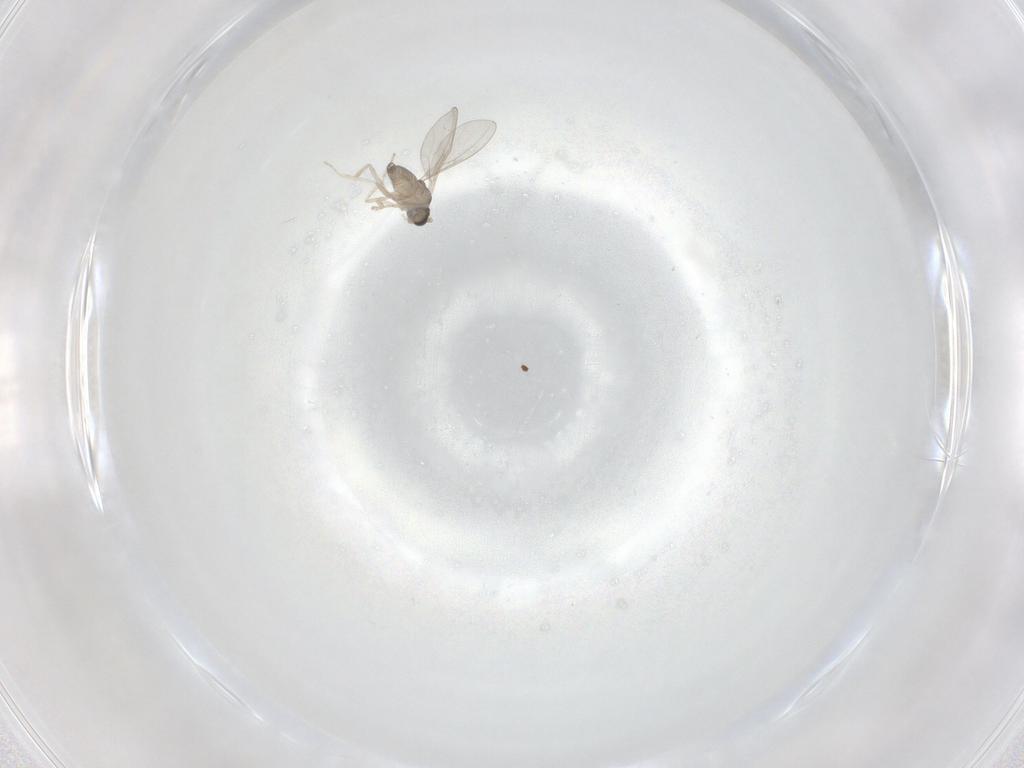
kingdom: Animalia
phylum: Arthropoda
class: Insecta
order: Diptera
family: Cecidomyiidae
